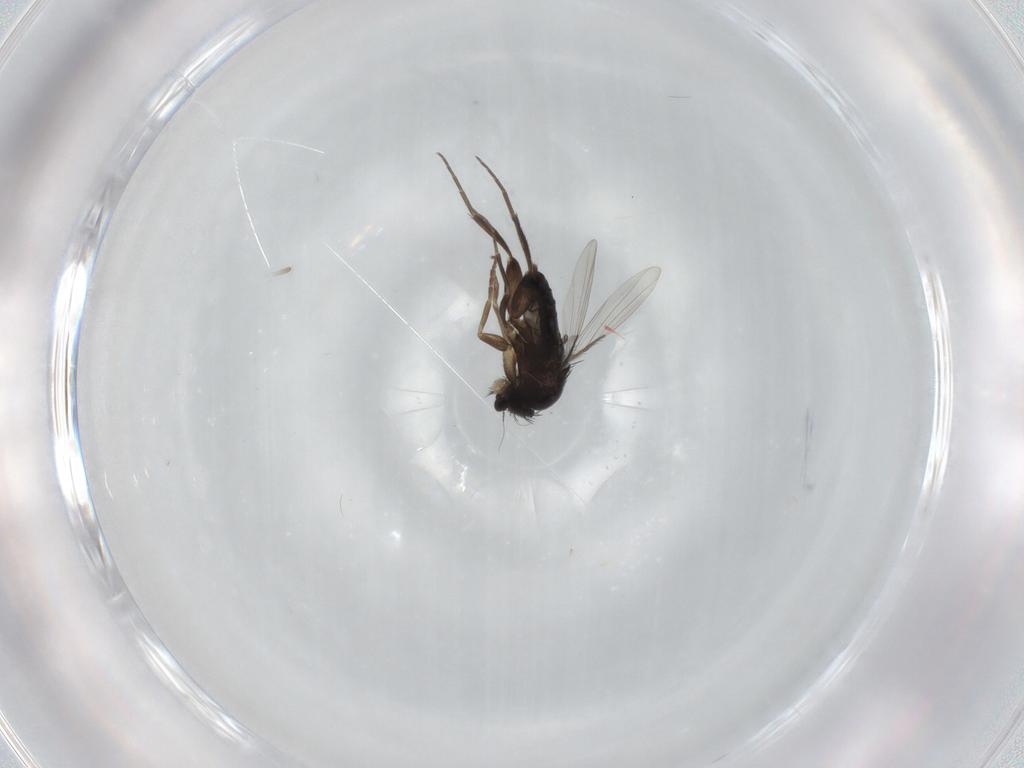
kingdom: Animalia
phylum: Arthropoda
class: Insecta
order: Diptera
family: Phoridae
